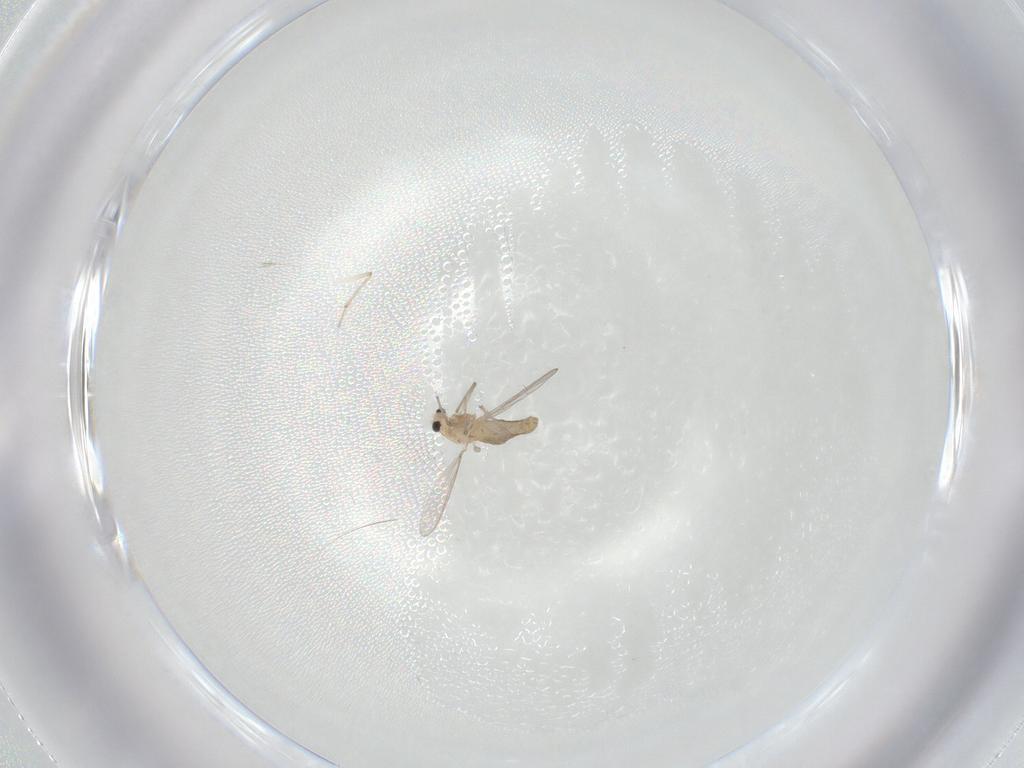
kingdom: Animalia
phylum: Arthropoda
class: Insecta
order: Diptera
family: Chironomidae
